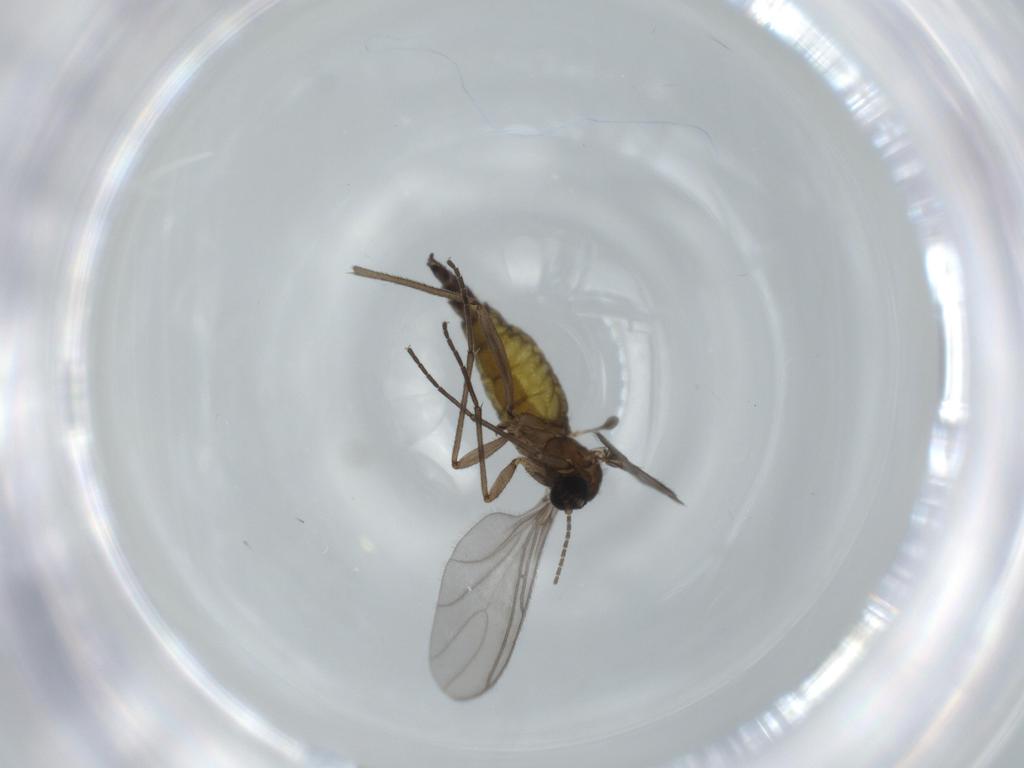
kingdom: Animalia
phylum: Arthropoda
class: Insecta
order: Diptera
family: Sciaridae
